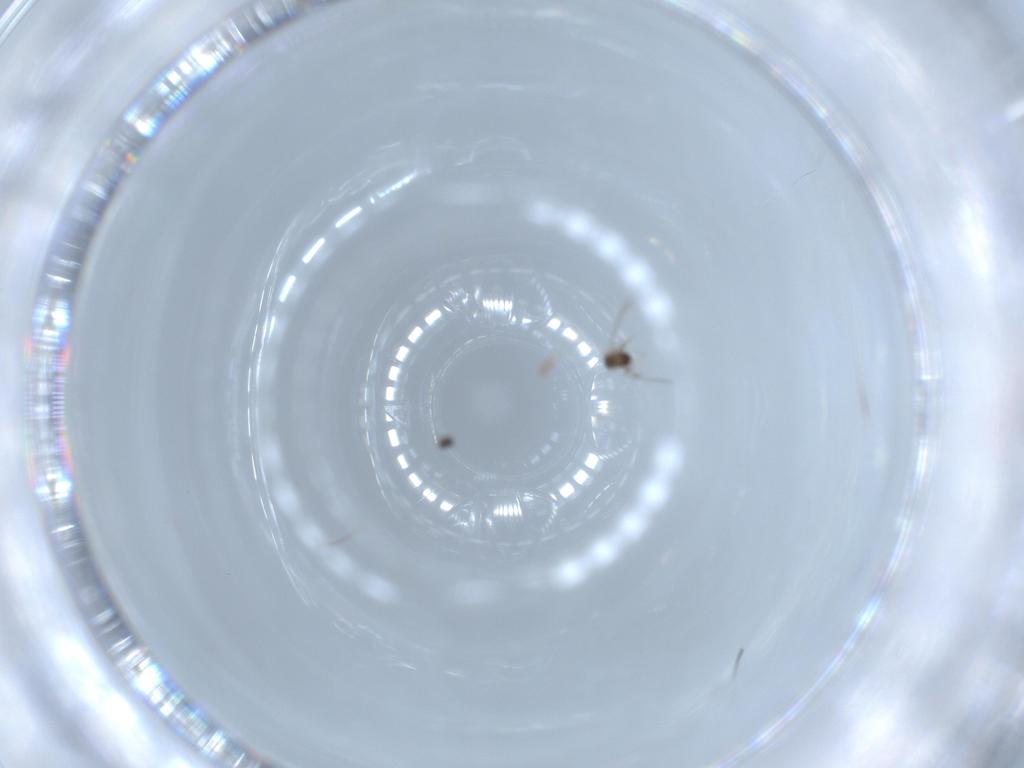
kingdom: Animalia
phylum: Arthropoda
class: Insecta
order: Hymenoptera
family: Mymaridae
